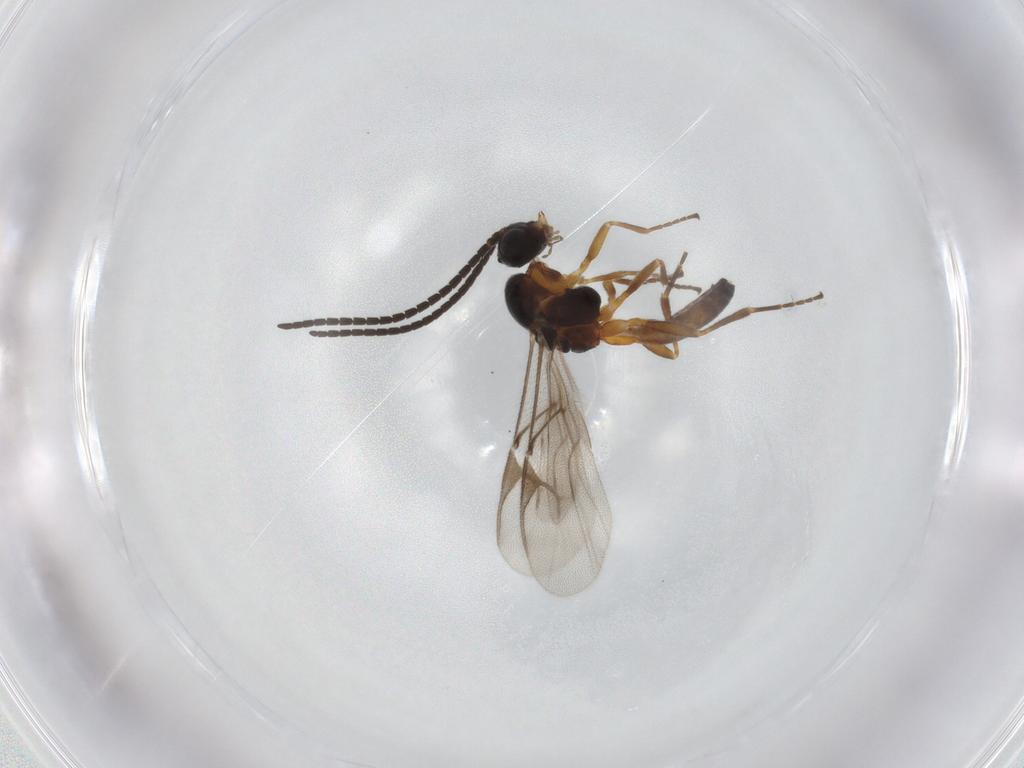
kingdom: Animalia
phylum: Arthropoda
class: Insecta
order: Hymenoptera
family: Braconidae
